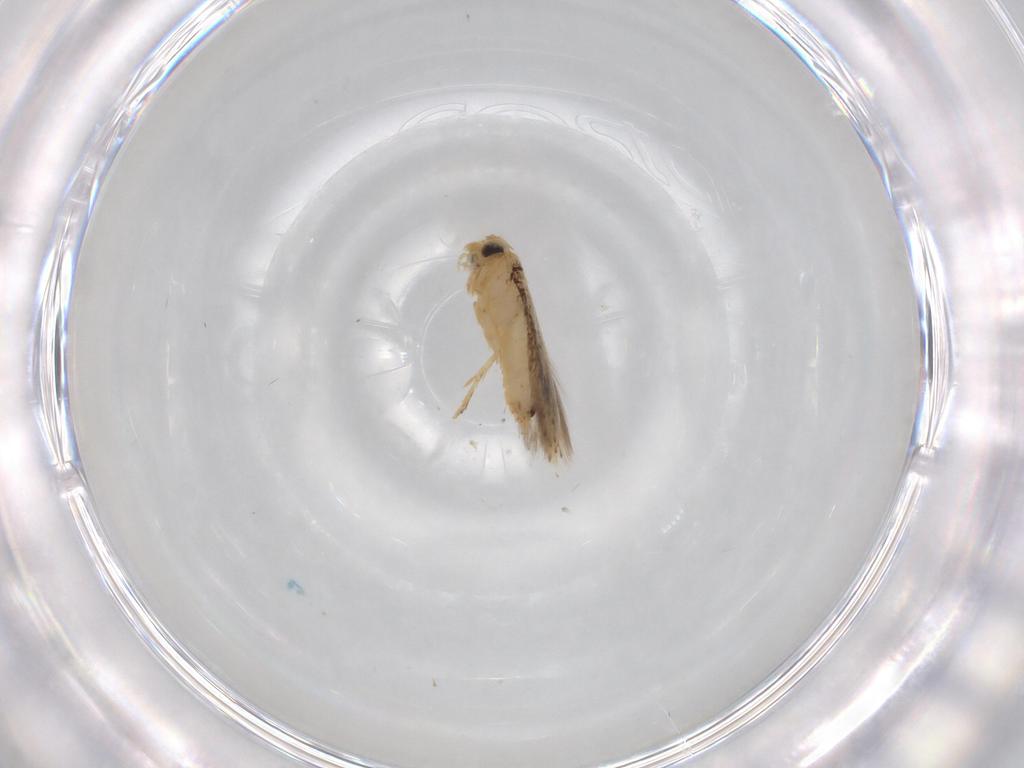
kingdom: Animalia
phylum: Arthropoda
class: Insecta
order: Lepidoptera
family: Nepticulidae
